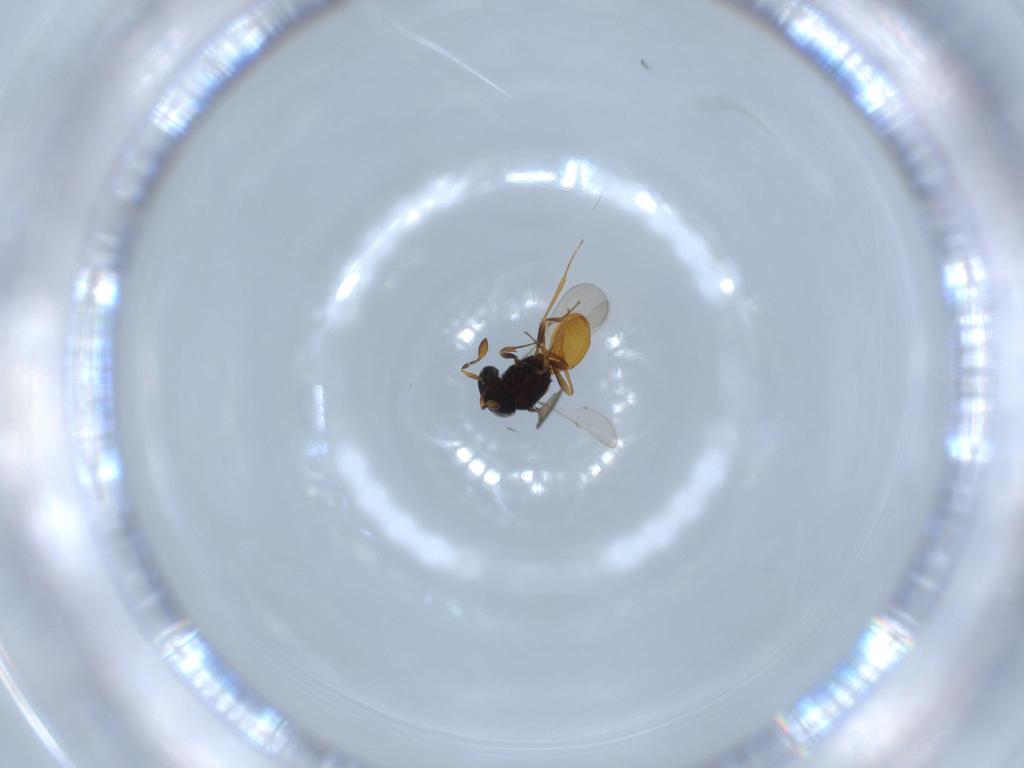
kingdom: Animalia
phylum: Arthropoda
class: Insecta
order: Hymenoptera
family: Scelionidae
